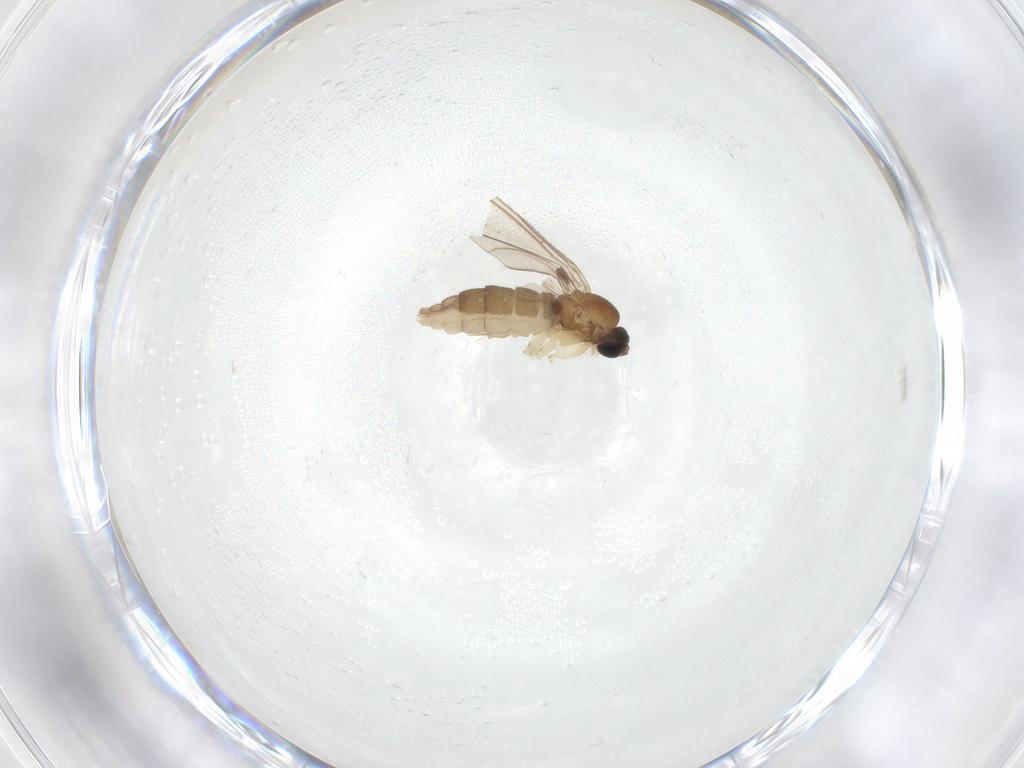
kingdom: Animalia
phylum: Arthropoda
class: Insecta
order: Diptera
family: Sciaridae
